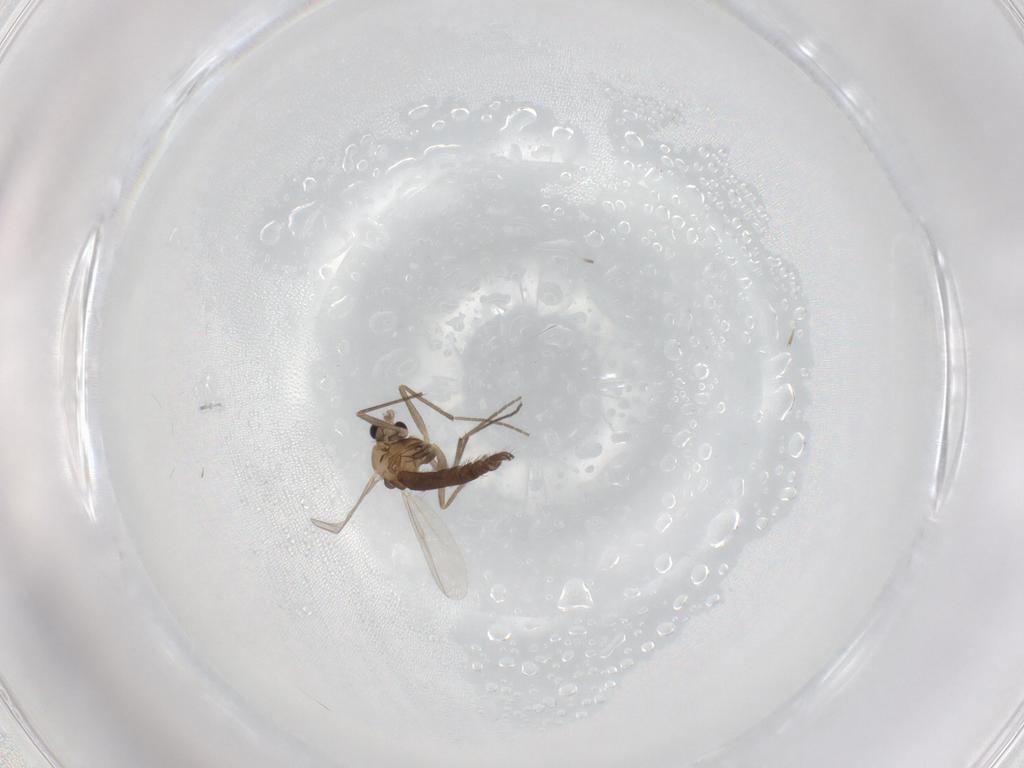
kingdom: Animalia
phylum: Arthropoda
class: Insecta
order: Diptera
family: Chironomidae
